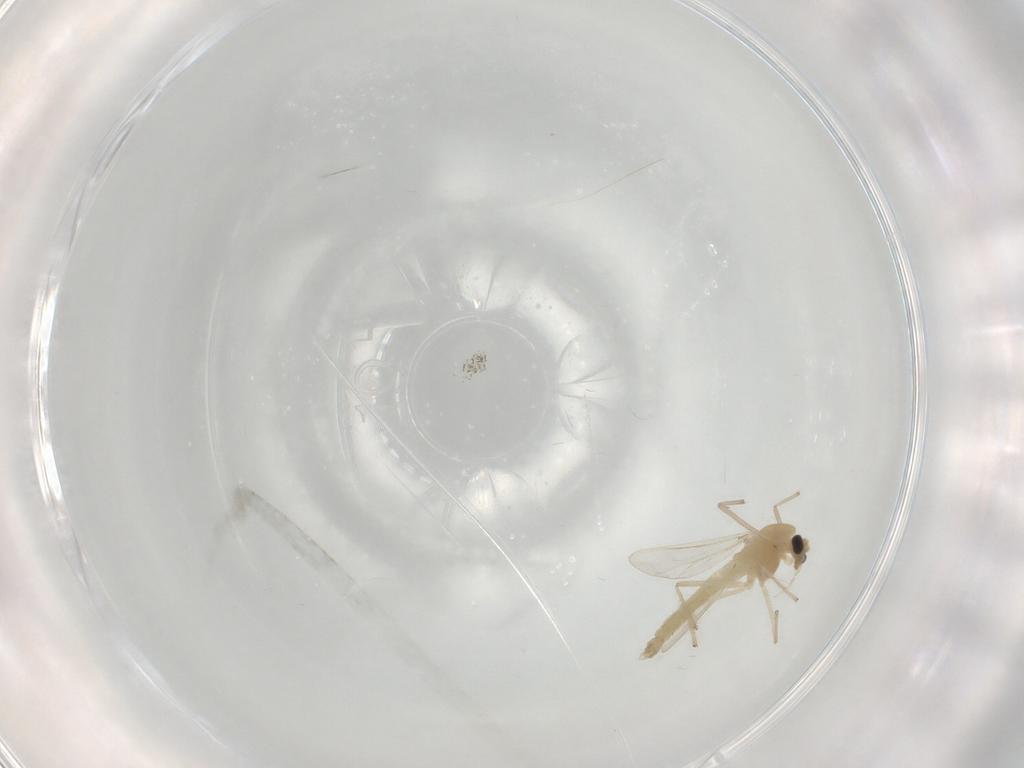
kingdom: Animalia
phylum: Arthropoda
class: Insecta
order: Diptera
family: Chironomidae
